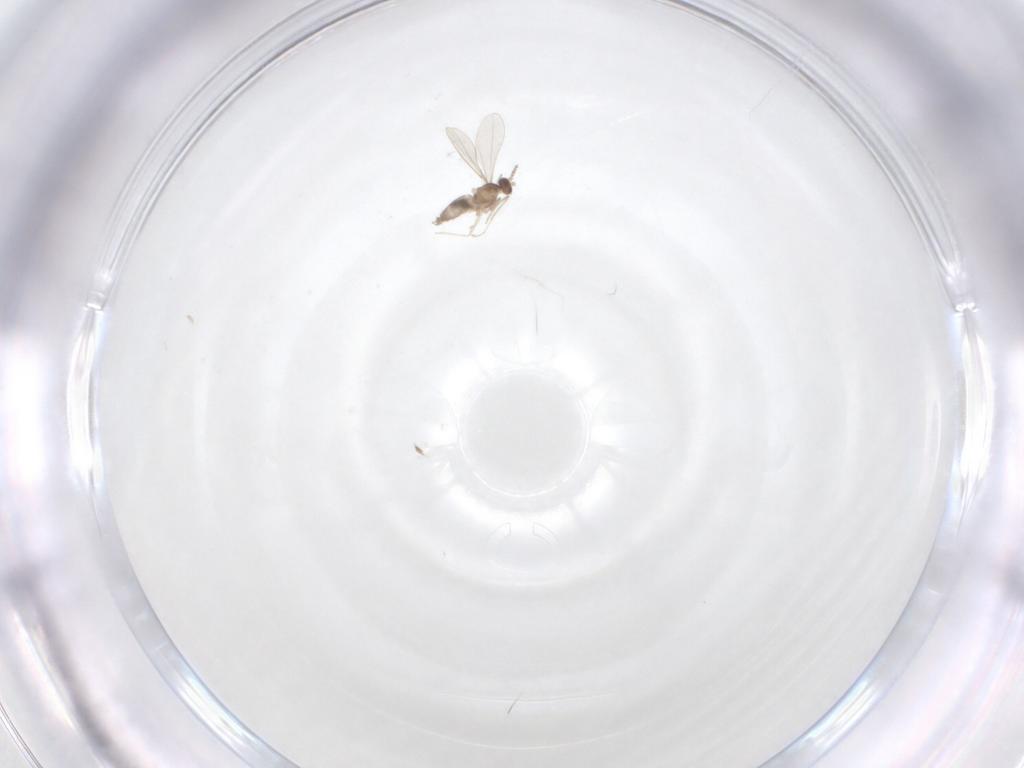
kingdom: Animalia
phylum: Arthropoda
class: Insecta
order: Diptera
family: Cecidomyiidae
